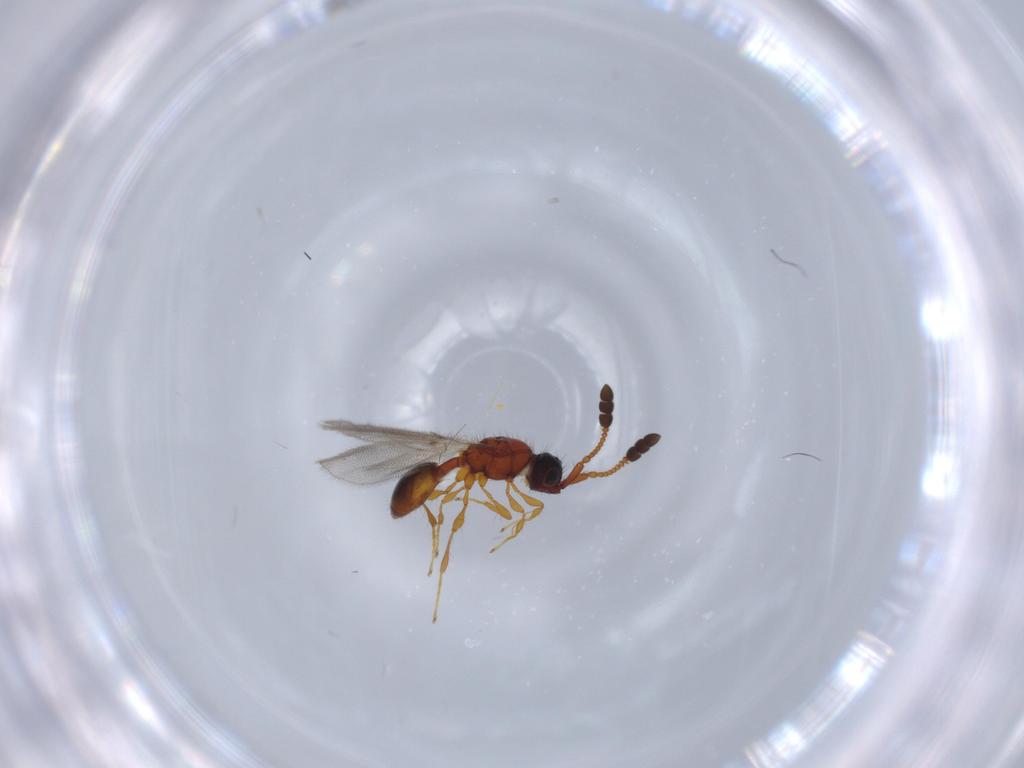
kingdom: Animalia
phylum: Arthropoda
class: Insecta
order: Hymenoptera
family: Diapriidae
